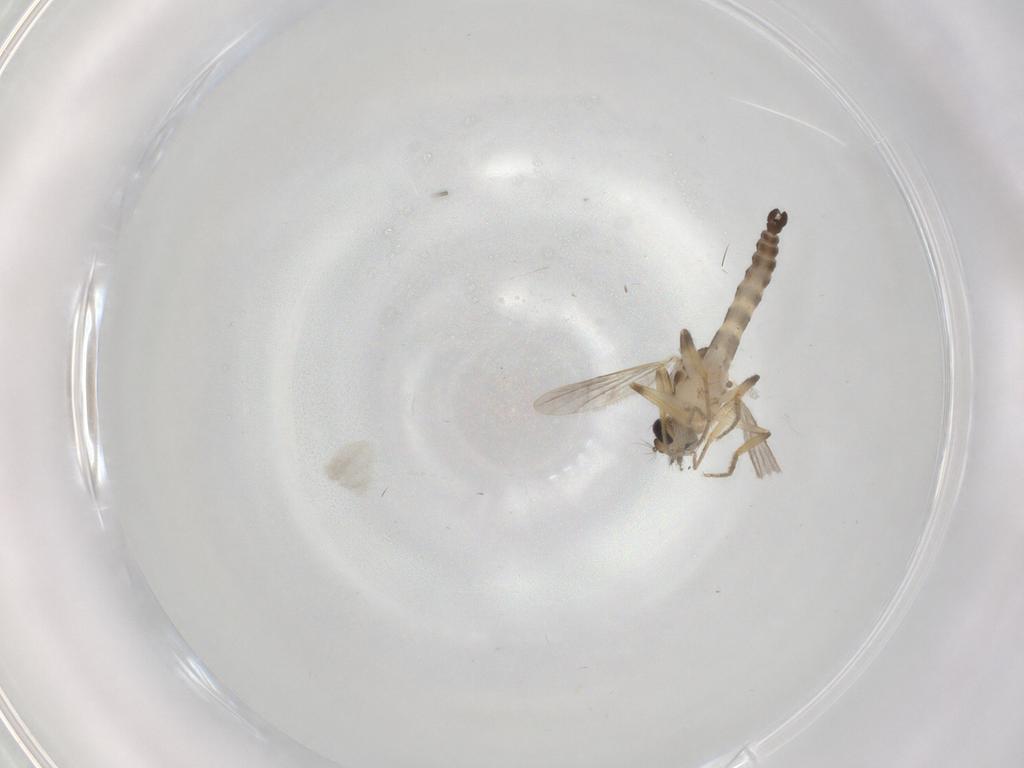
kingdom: Animalia
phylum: Arthropoda
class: Insecta
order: Diptera
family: Ceratopogonidae
